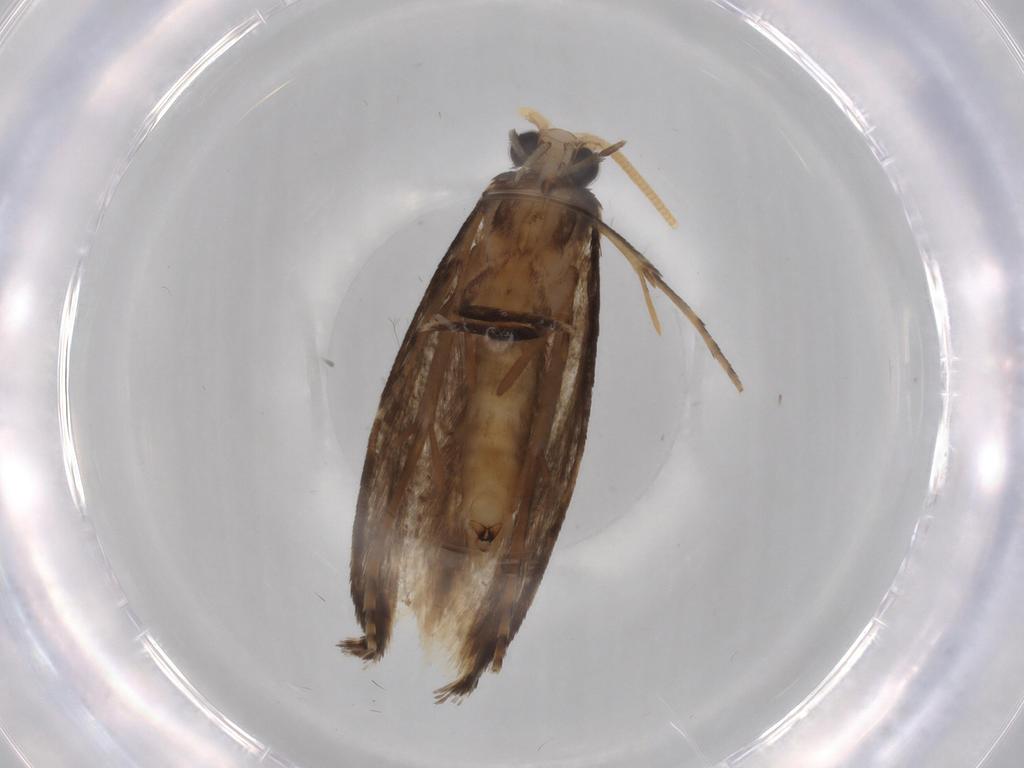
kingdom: Animalia
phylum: Arthropoda
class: Insecta
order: Lepidoptera
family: Tineidae
